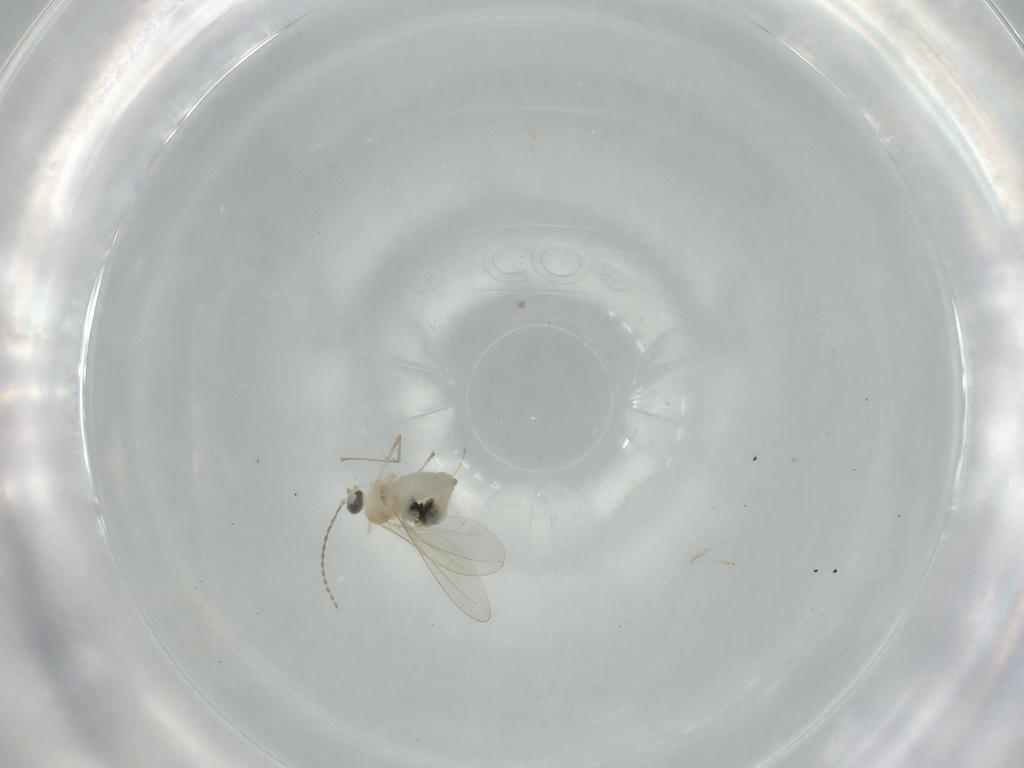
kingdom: Animalia
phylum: Arthropoda
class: Insecta
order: Diptera
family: Cecidomyiidae
